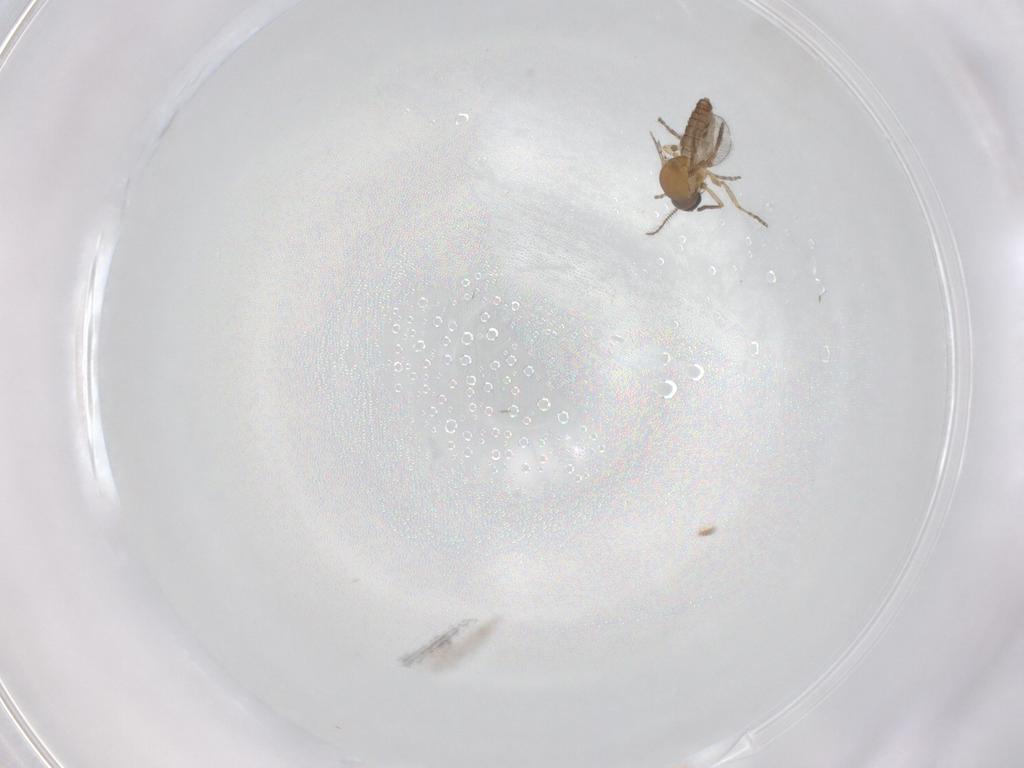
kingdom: Animalia
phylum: Arthropoda
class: Insecta
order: Diptera
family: Ceratopogonidae
